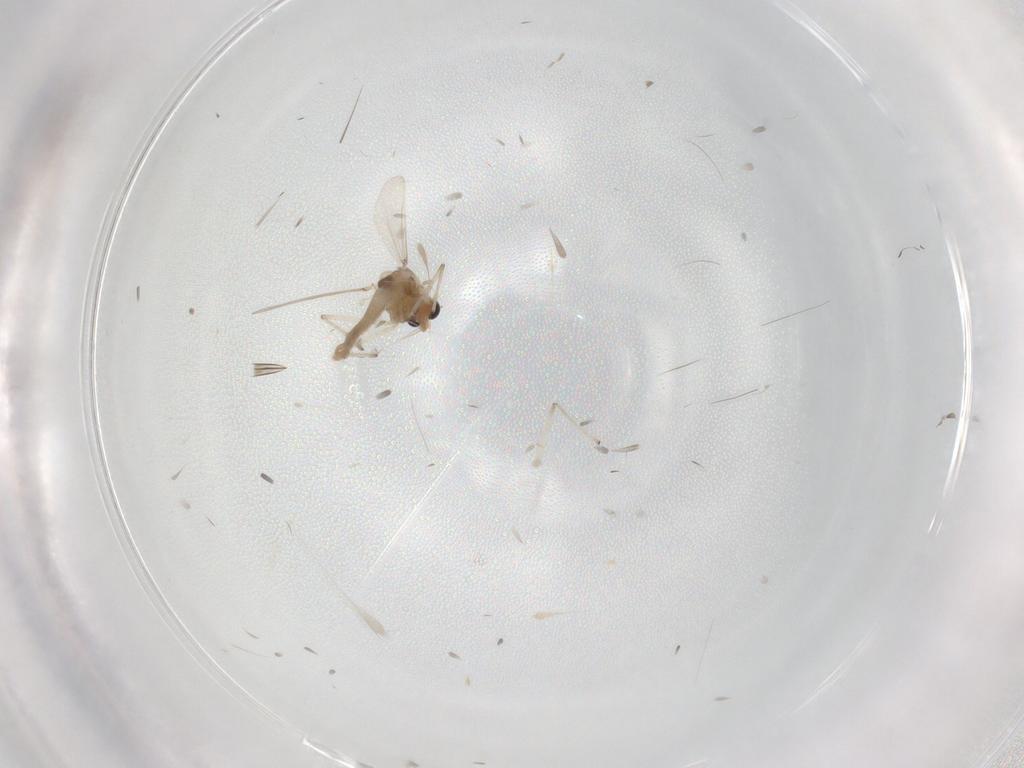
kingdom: Animalia
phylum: Arthropoda
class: Insecta
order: Diptera
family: Chironomidae
